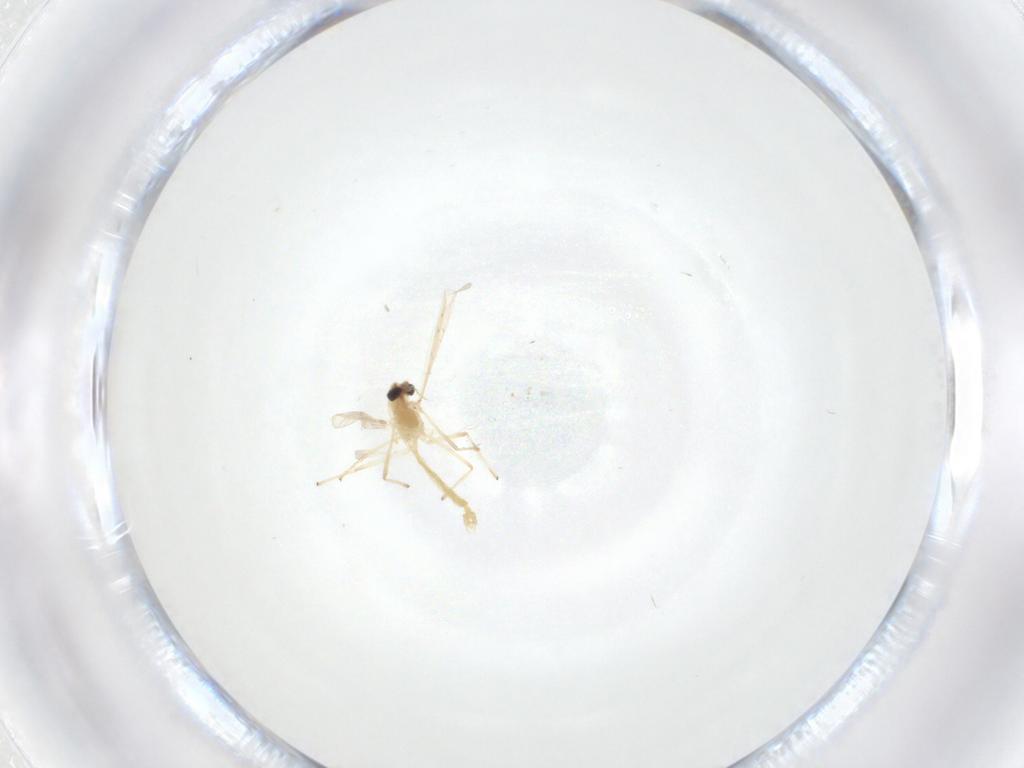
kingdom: Animalia
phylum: Arthropoda
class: Insecta
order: Diptera
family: Chironomidae
